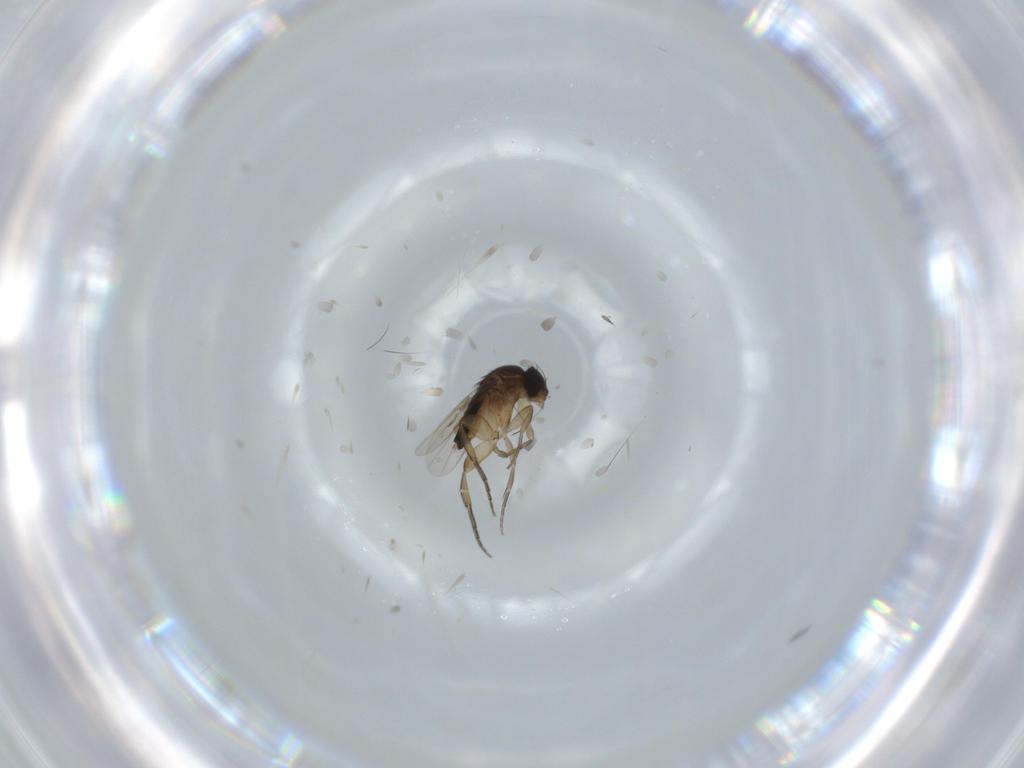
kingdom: Animalia
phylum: Arthropoda
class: Insecta
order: Diptera
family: Phoridae
